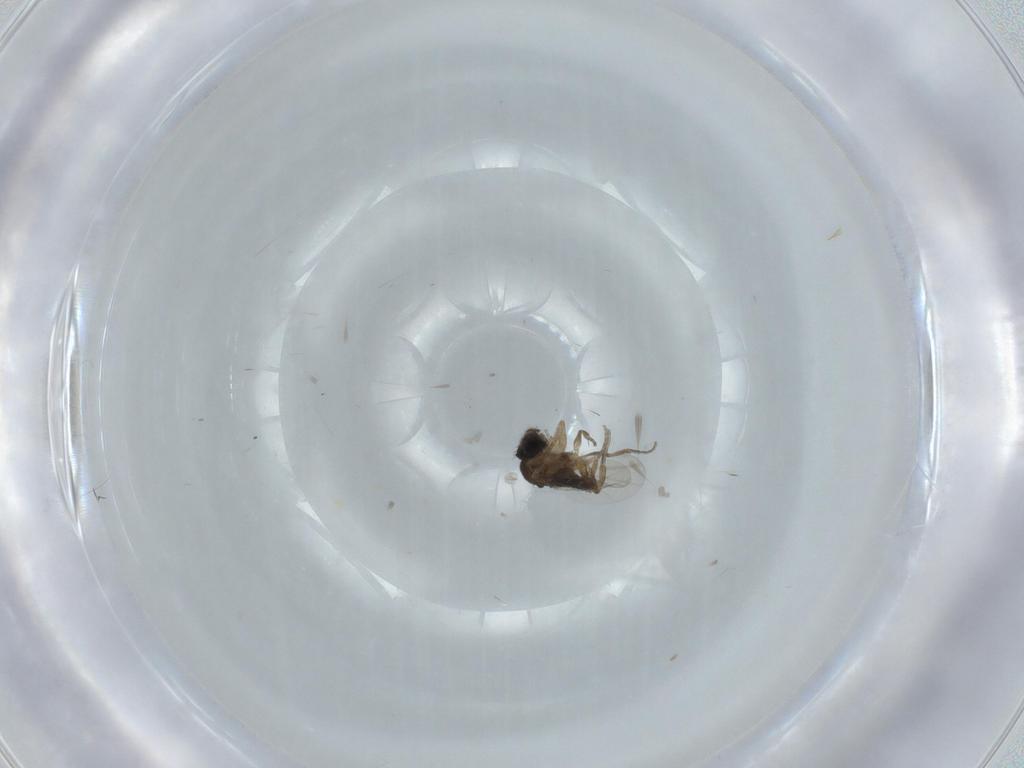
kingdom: Animalia
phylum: Arthropoda
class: Insecta
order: Diptera
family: Phoridae
